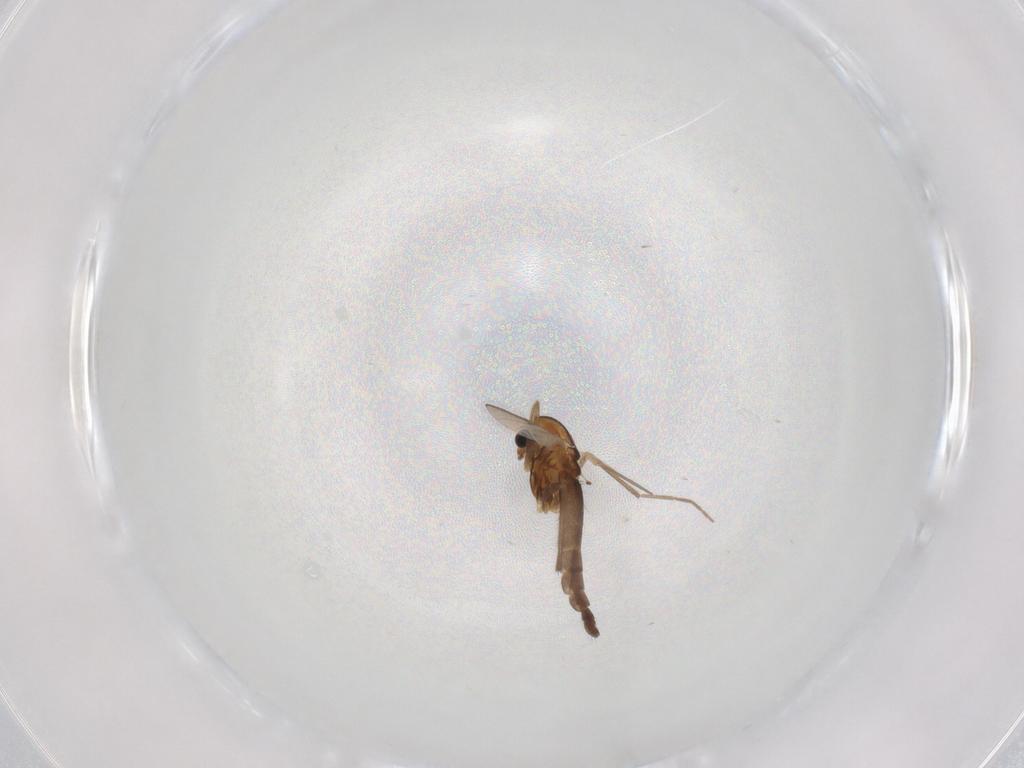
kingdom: Animalia
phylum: Arthropoda
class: Insecta
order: Diptera
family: Chironomidae
